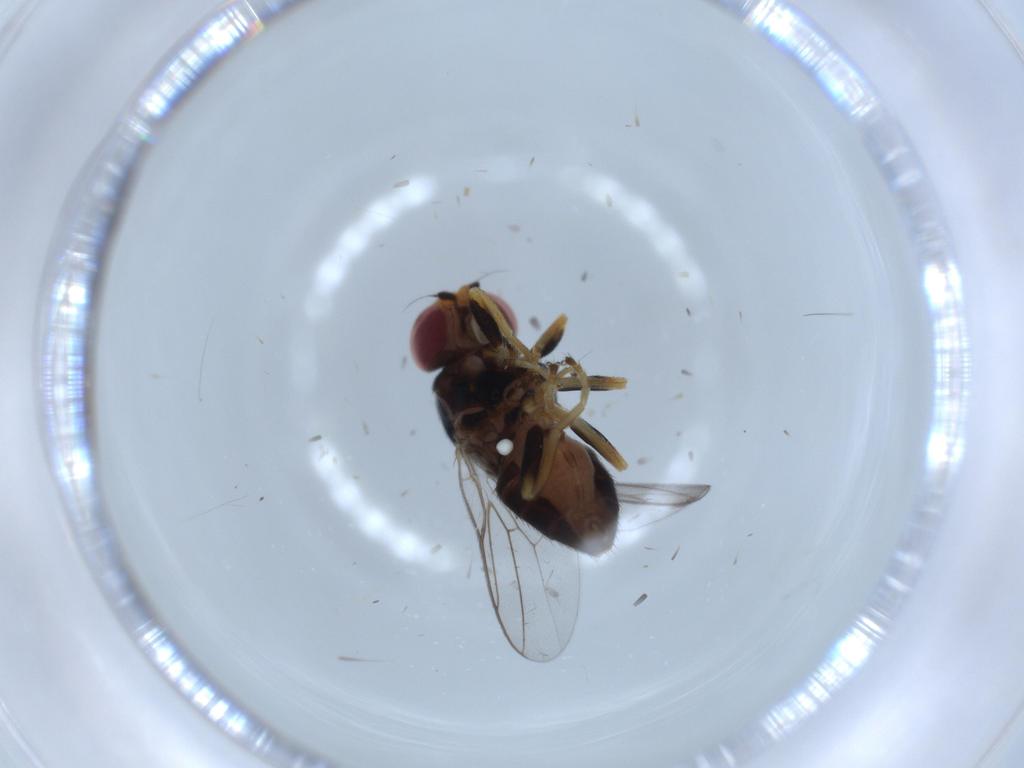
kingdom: Animalia
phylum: Arthropoda
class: Insecta
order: Diptera
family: Chloropidae
